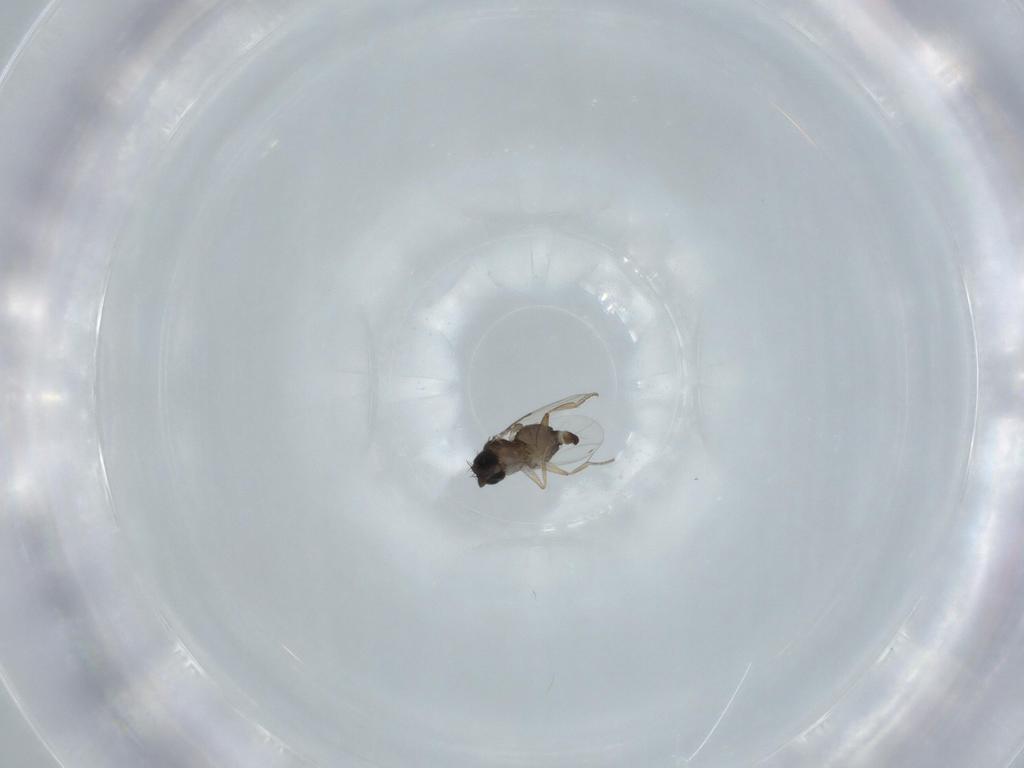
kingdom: Animalia
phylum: Arthropoda
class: Insecta
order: Diptera
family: Phoridae
